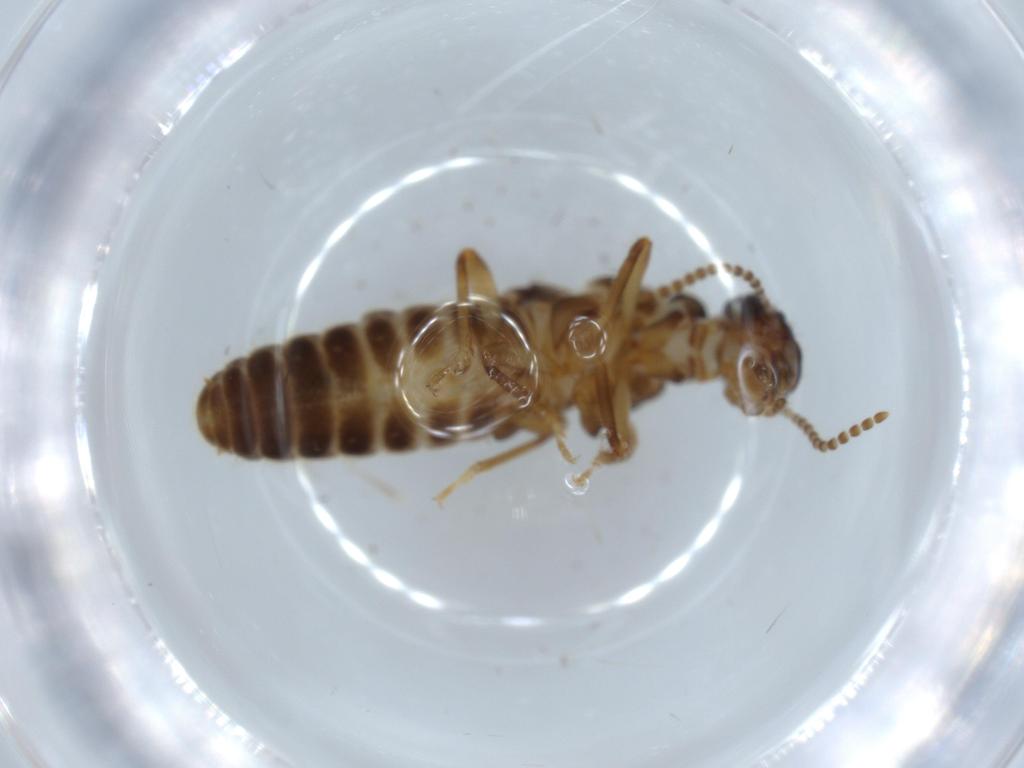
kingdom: Animalia
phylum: Arthropoda
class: Insecta
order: Blattodea
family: Termitidae
